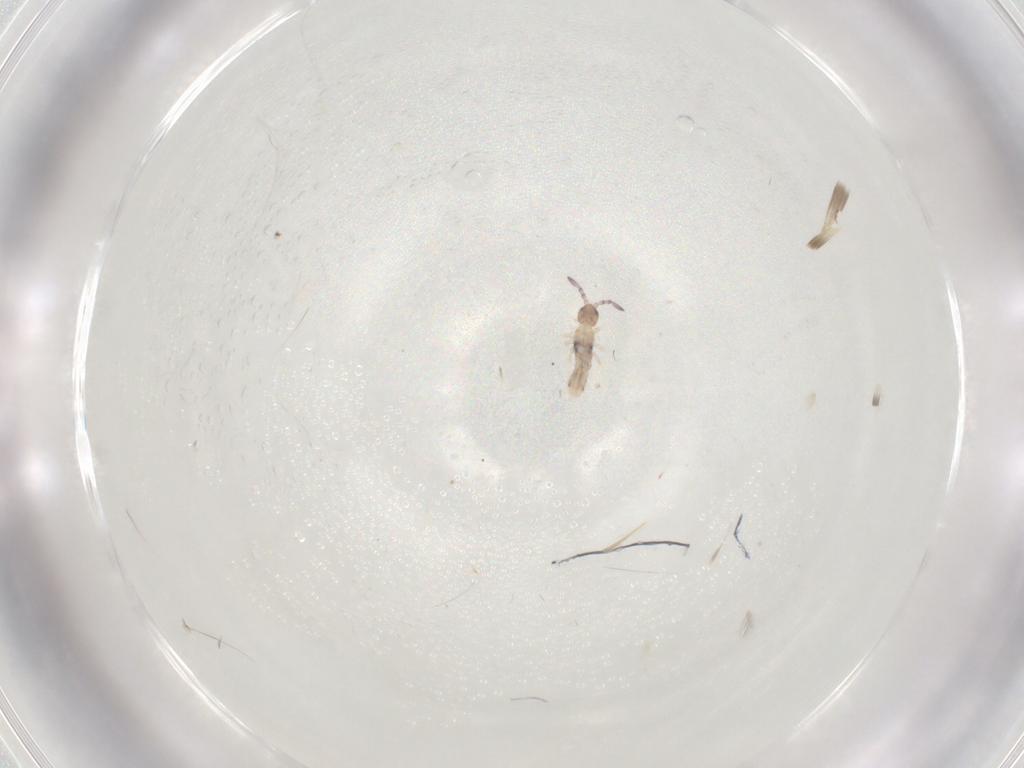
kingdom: Animalia
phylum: Arthropoda
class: Collembola
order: Entomobryomorpha
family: Entomobryidae
